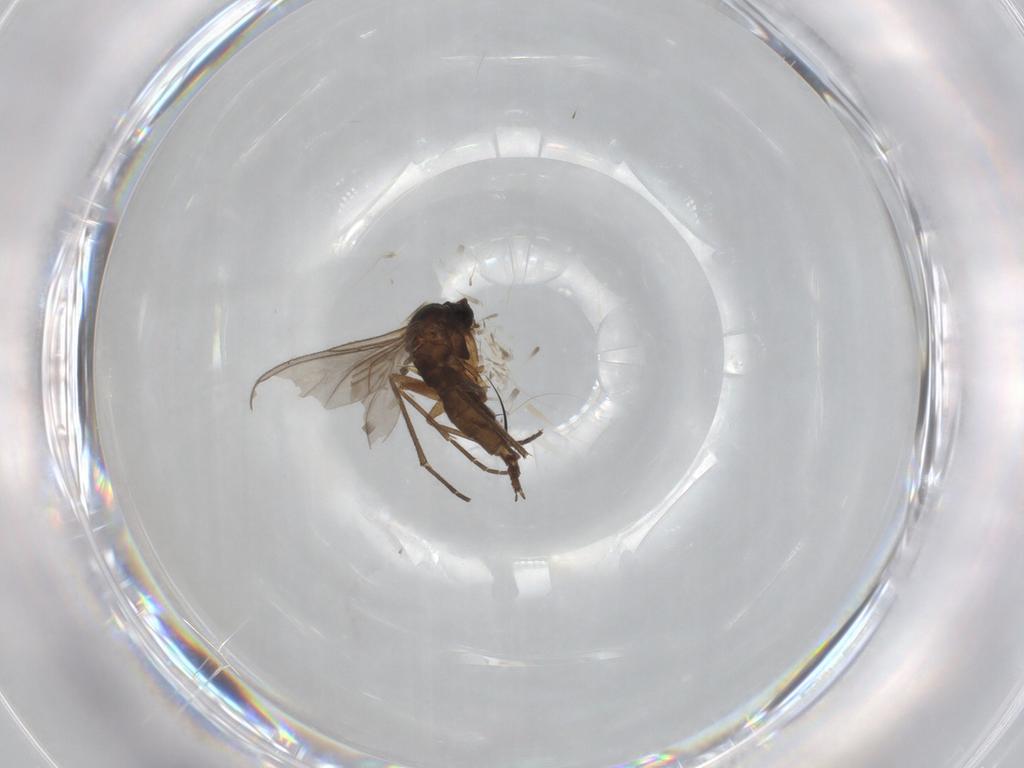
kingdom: Animalia
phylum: Arthropoda
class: Insecta
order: Diptera
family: Sciaridae
